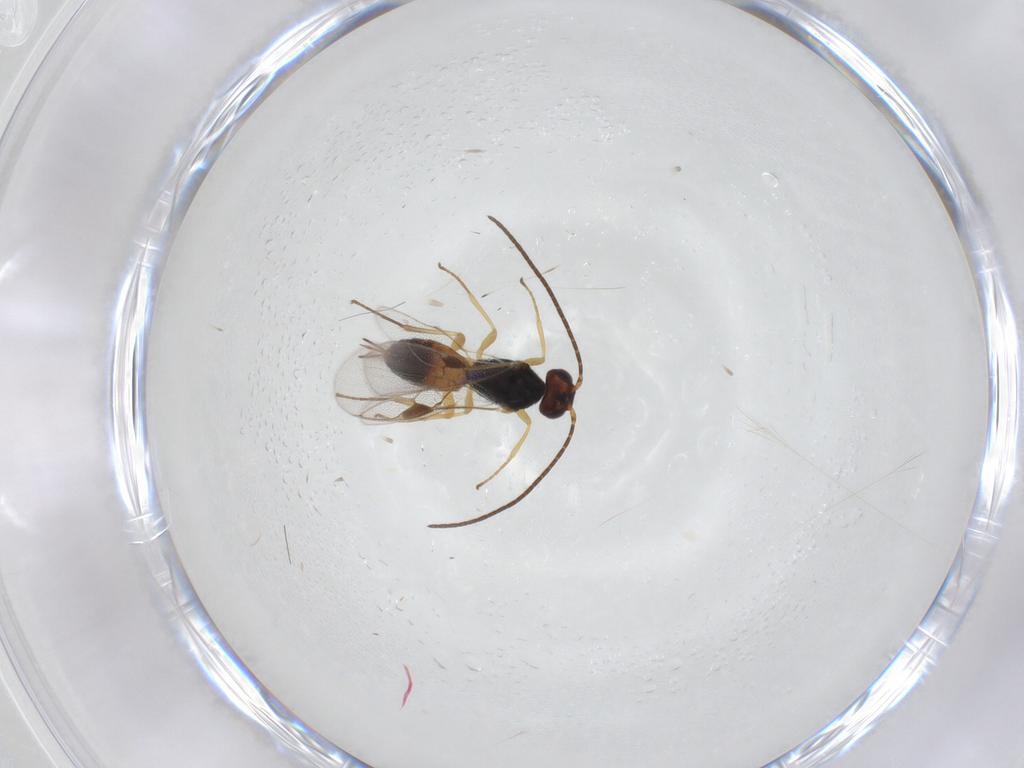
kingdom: Animalia
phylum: Arthropoda
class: Insecta
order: Hymenoptera
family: Braconidae
